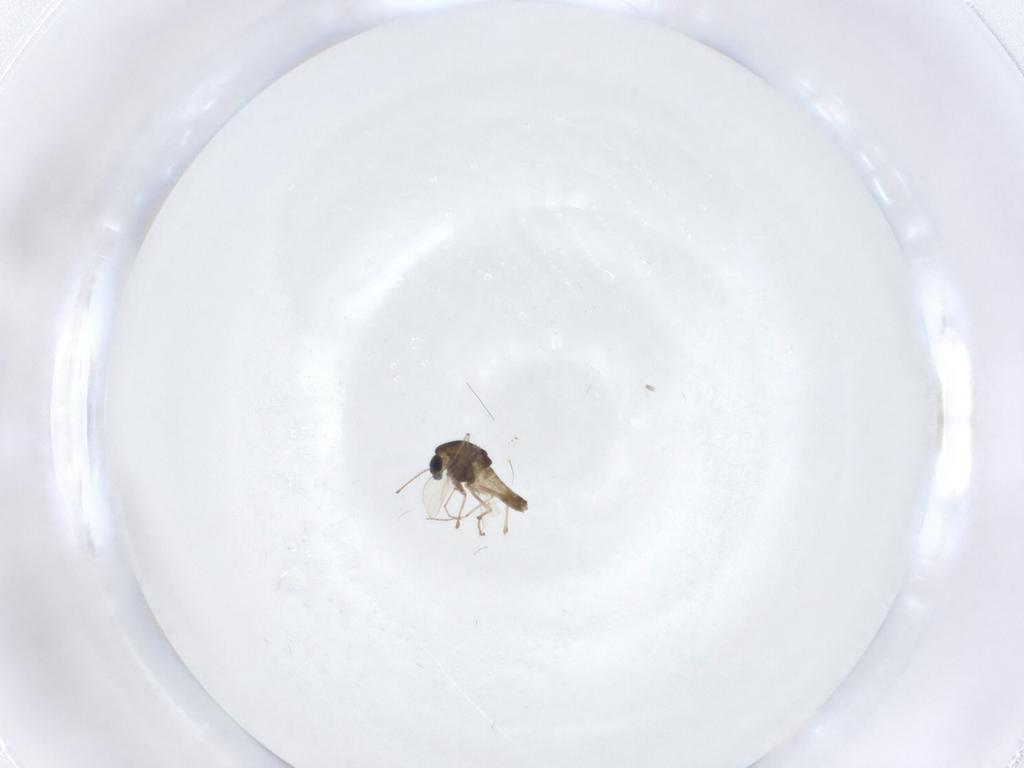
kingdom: Animalia
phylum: Arthropoda
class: Insecta
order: Diptera
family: Chironomidae
